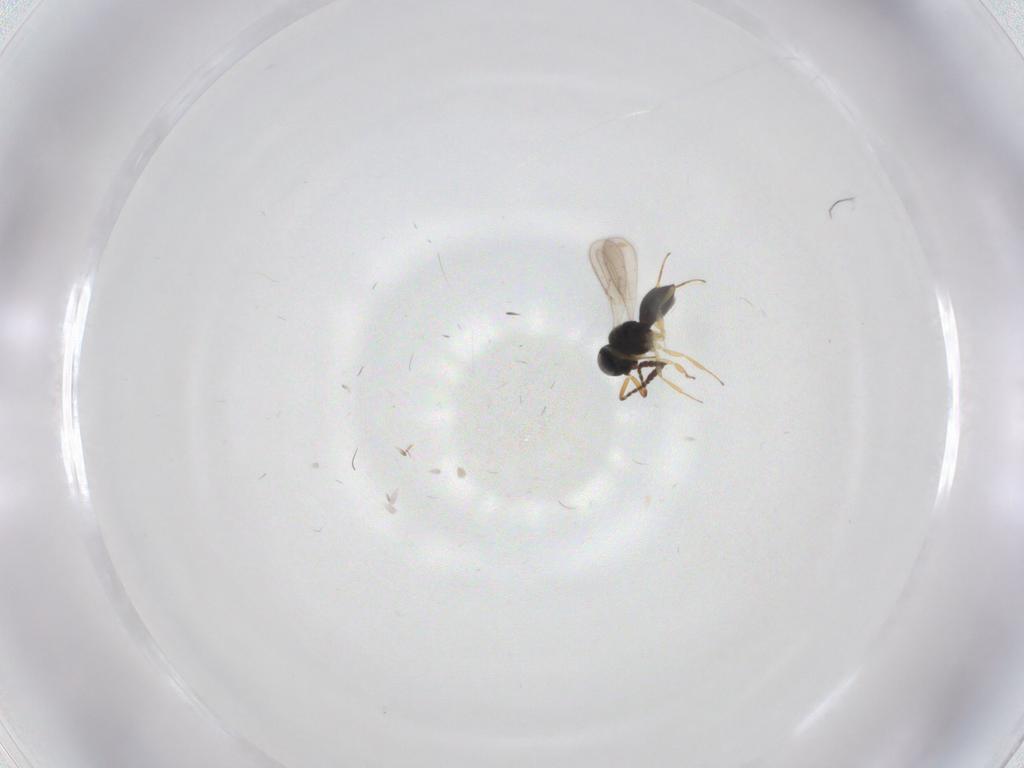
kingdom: Animalia
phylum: Arthropoda
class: Insecta
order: Hymenoptera
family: Scelionidae
